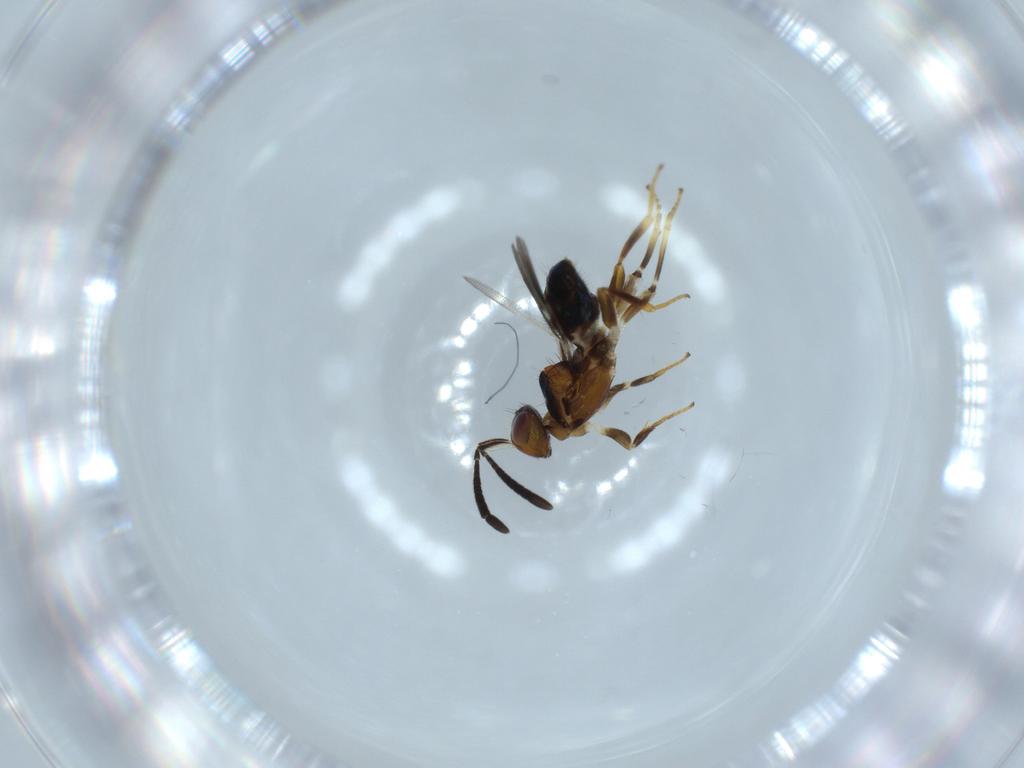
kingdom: Animalia
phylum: Arthropoda
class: Insecta
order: Hymenoptera
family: Eupelmidae
